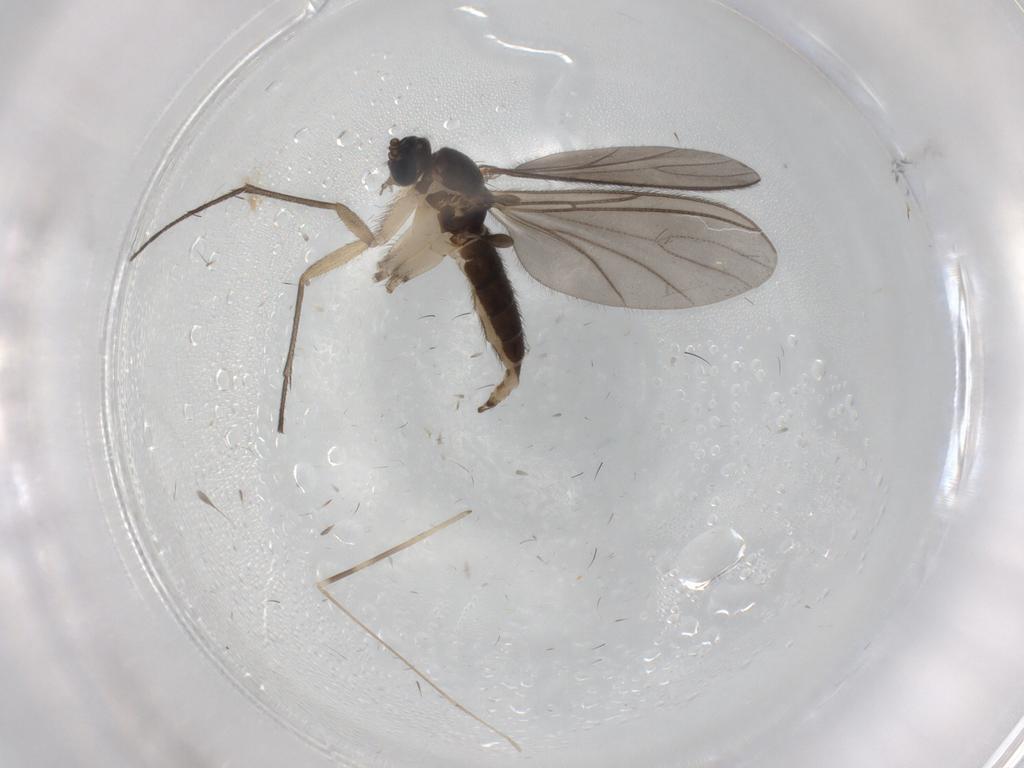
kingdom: Animalia
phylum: Arthropoda
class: Insecta
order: Diptera
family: Sciaridae
